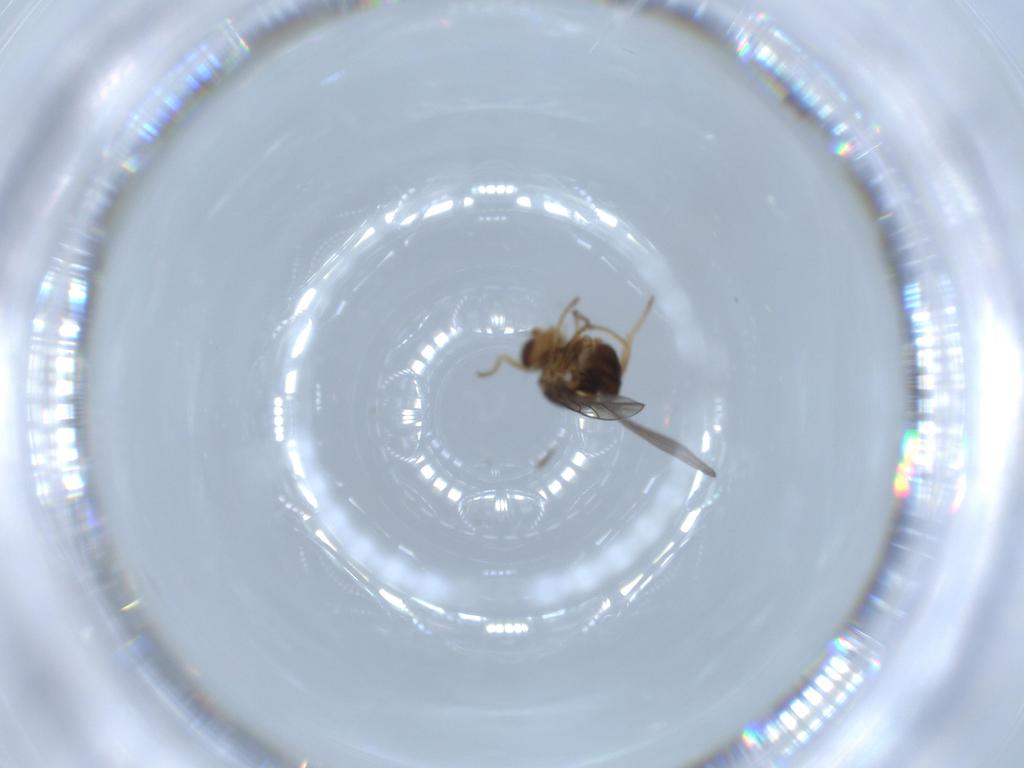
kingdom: Animalia
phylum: Arthropoda
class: Insecta
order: Diptera
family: Chloropidae
